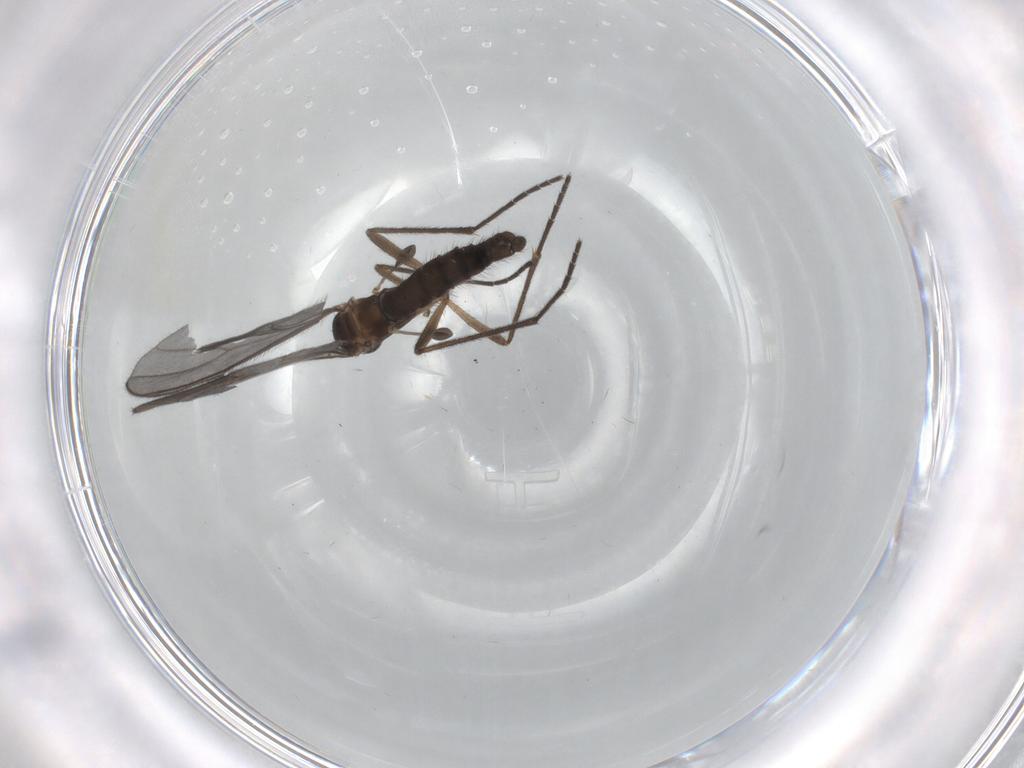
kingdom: Animalia
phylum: Arthropoda
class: Insecta
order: Diptera
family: Sciaridae
